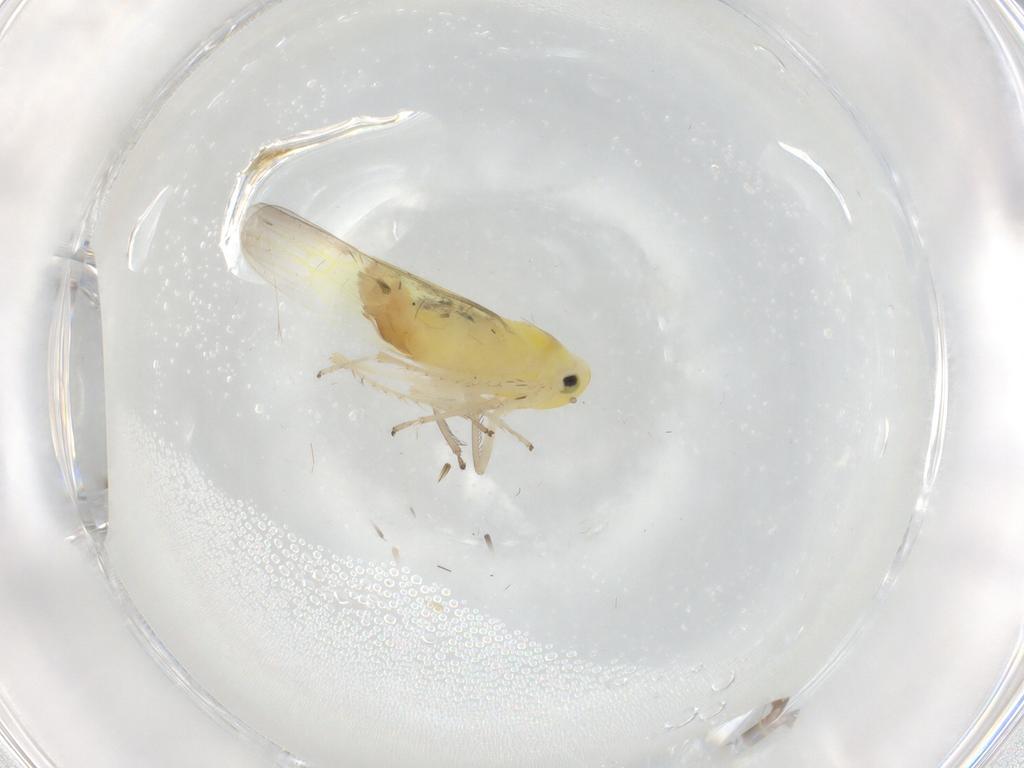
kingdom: Animalia
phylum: Arthropoda
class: Insecta
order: Hemiptera
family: Cicadellidae
